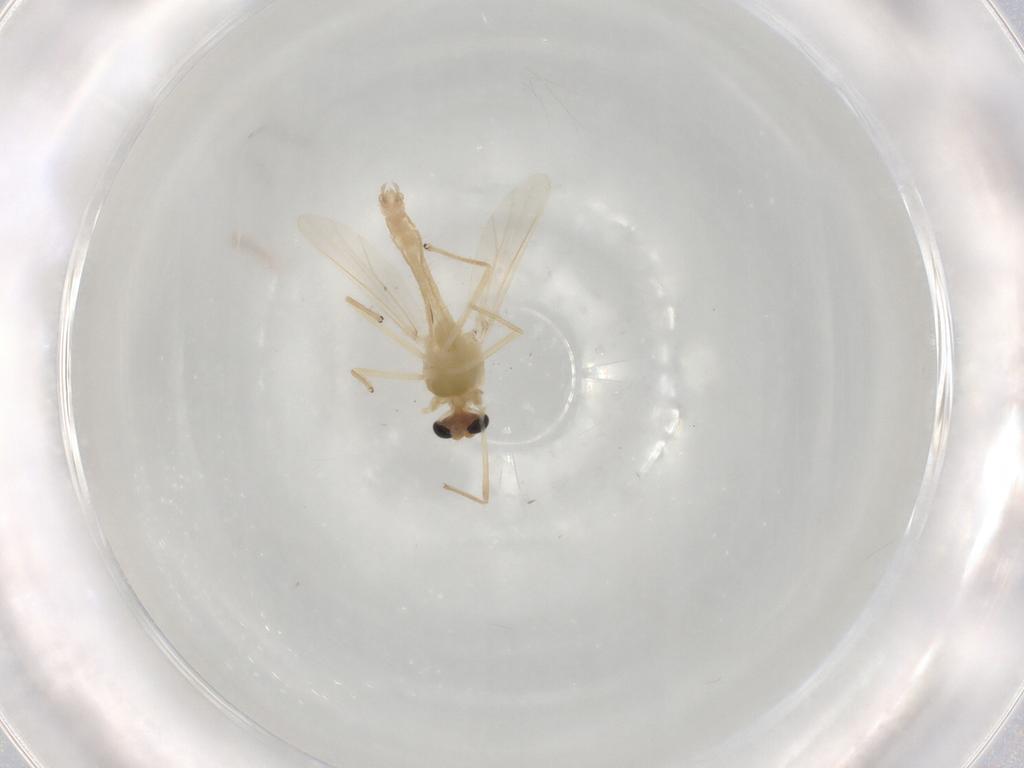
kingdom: Animalia
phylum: Arthropoda
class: Insecta
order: Diptera
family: Chironomidae
